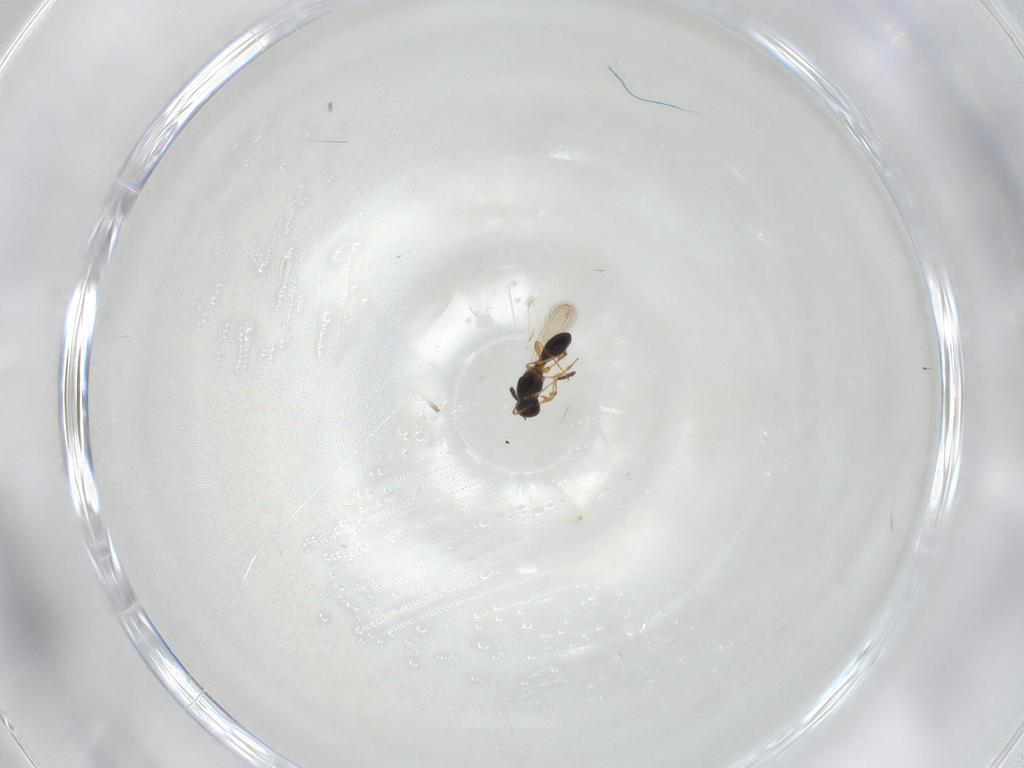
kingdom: Animalia
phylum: Arthropoda
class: Insecta
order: Hymenoptera
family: Platygastridae
